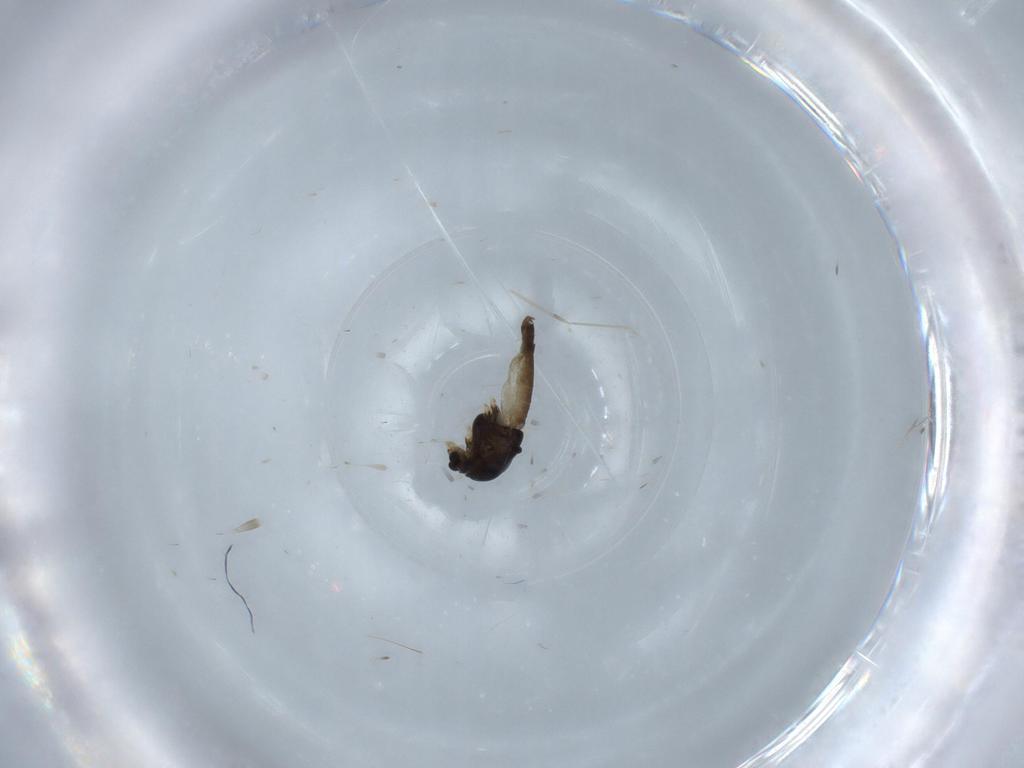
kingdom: Animalia
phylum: Arthropoda
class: Insecta
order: Diptera
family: Chironomidae
